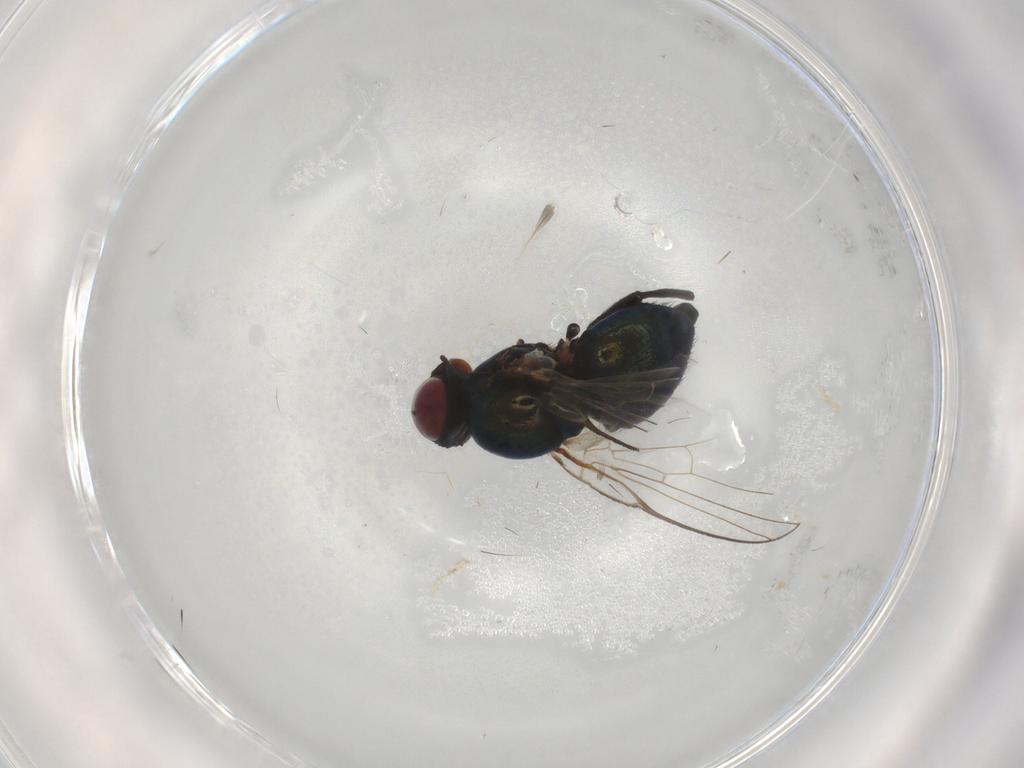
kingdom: Animalia
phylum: Arthropoda
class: Insecta
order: Diptera
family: Agromyzidae
